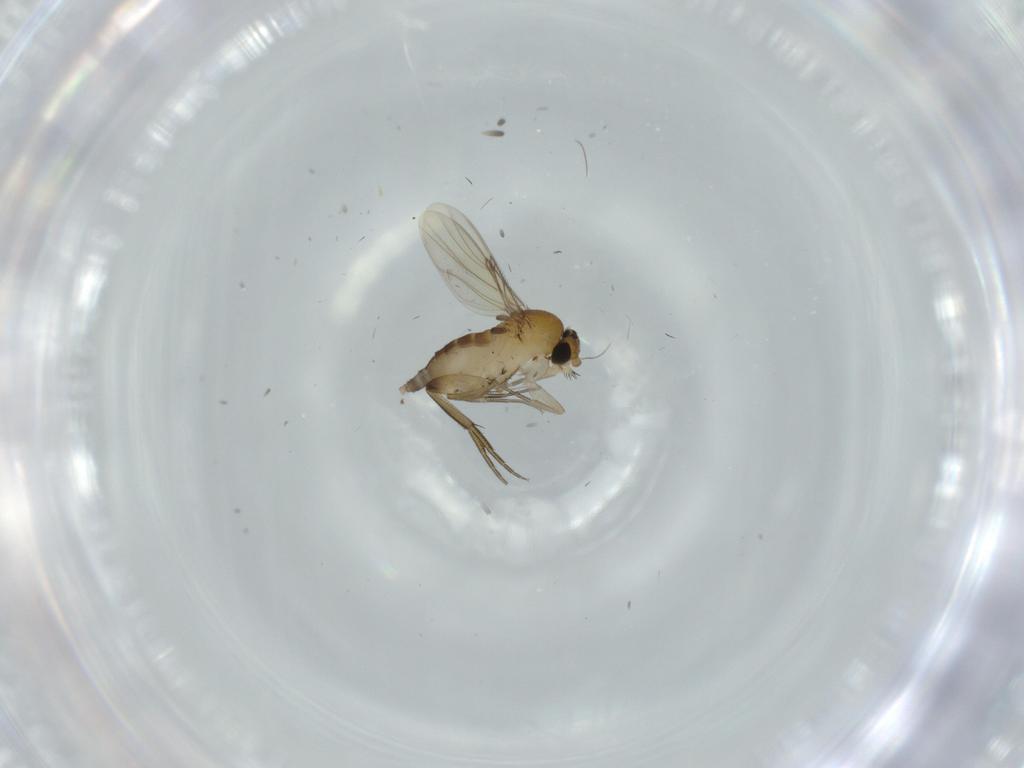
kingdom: Animalia
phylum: Arthropoda
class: Insecta
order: Diptera
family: Phoridae
